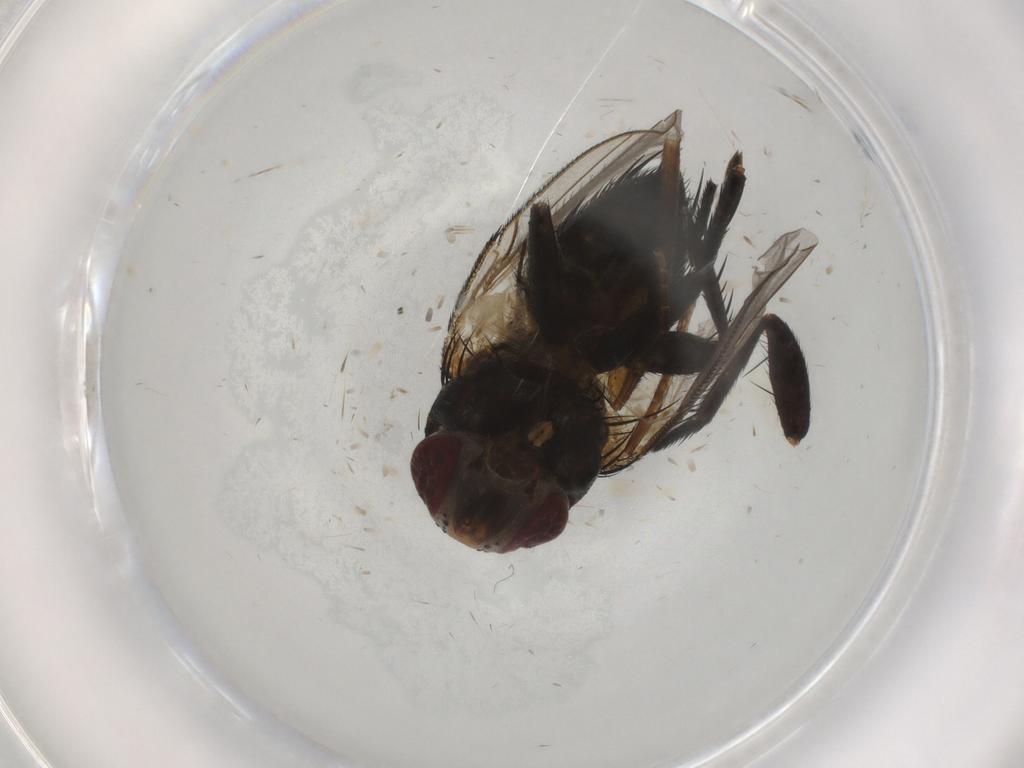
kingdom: Animalia
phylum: Arthropoda
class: Insecta
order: Diptera
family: Tachinidae
